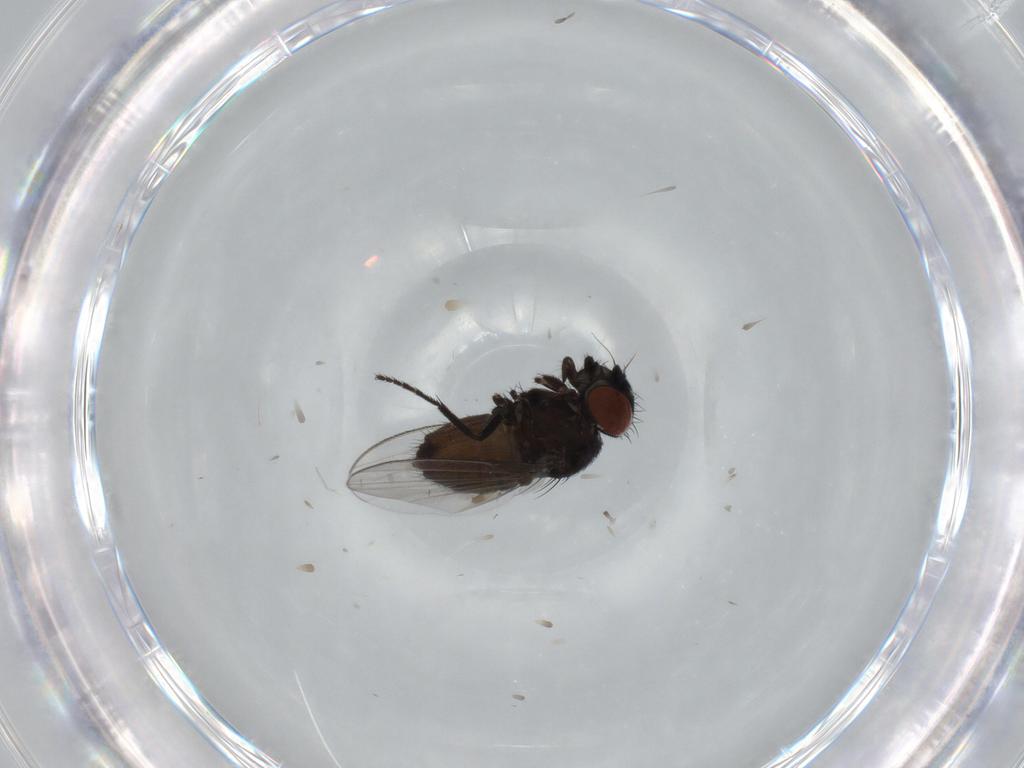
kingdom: Animalia
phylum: Arthropoda
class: Insecta
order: Diptera
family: Milichiidae
